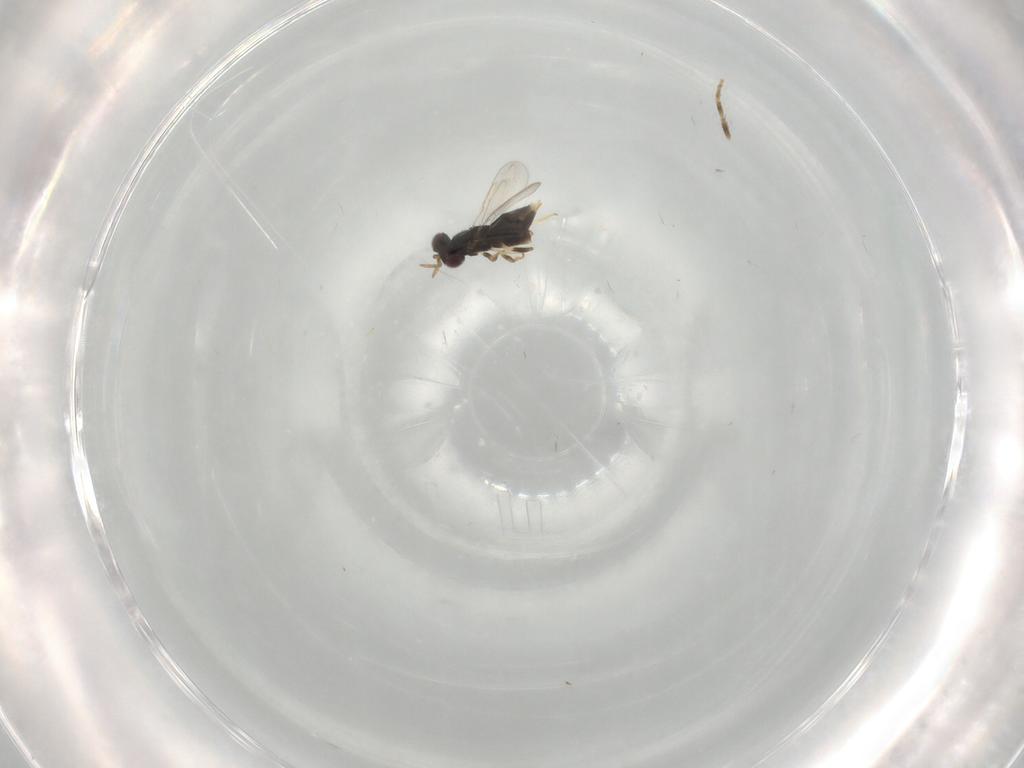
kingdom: Animalia
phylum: Arthropoda
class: Insecta
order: Hymenoptera
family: Aphelinidae
